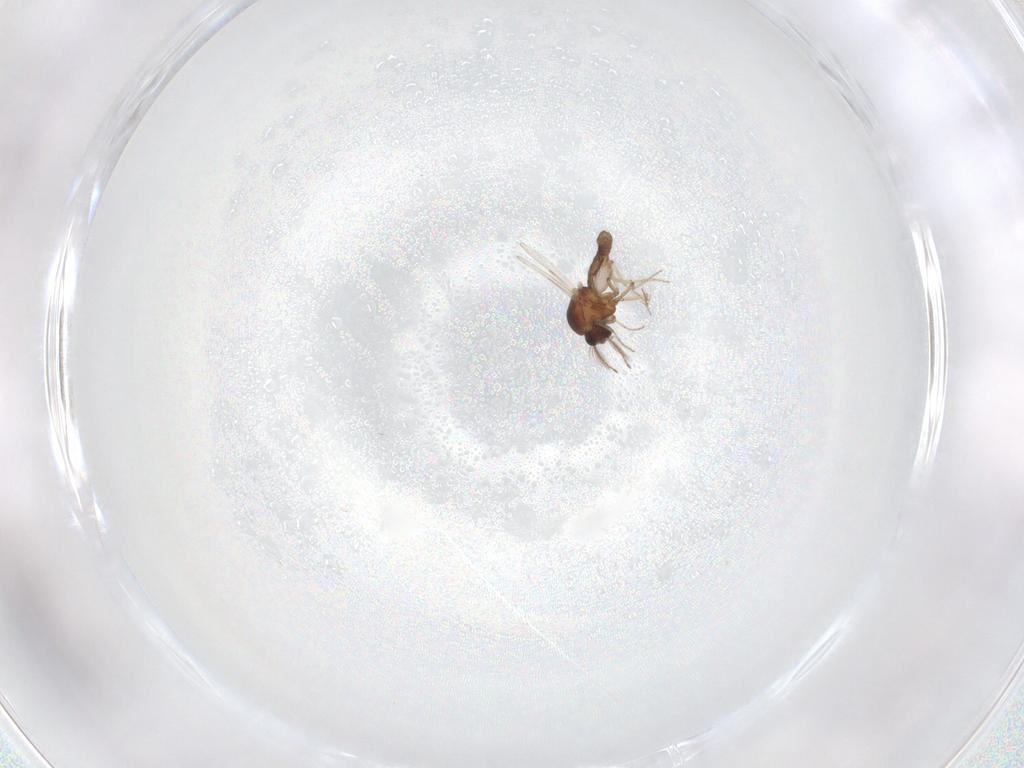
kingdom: Animalia
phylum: Arthropoda
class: Insecta
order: Diptera
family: Ceratopogonidae
